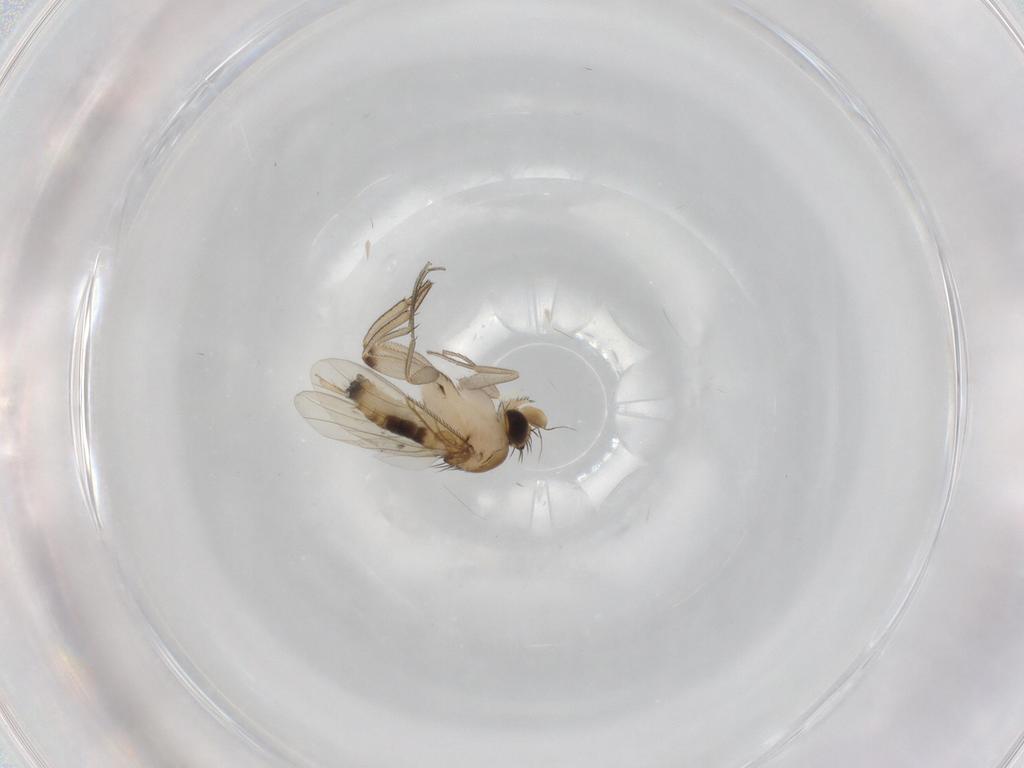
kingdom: Animalia
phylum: Arthropoda
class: Insecta
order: Diptera
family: Phoridae
